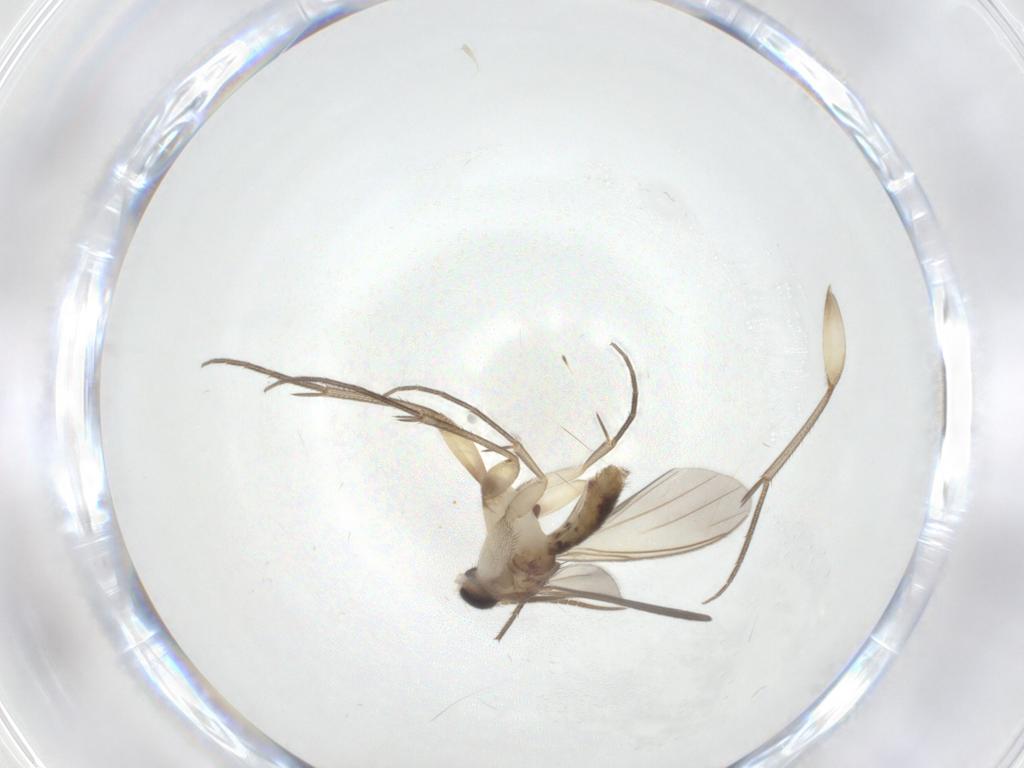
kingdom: Animalia
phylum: Arthropoda
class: Insecta
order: Diptera
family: Mycetophilidae
